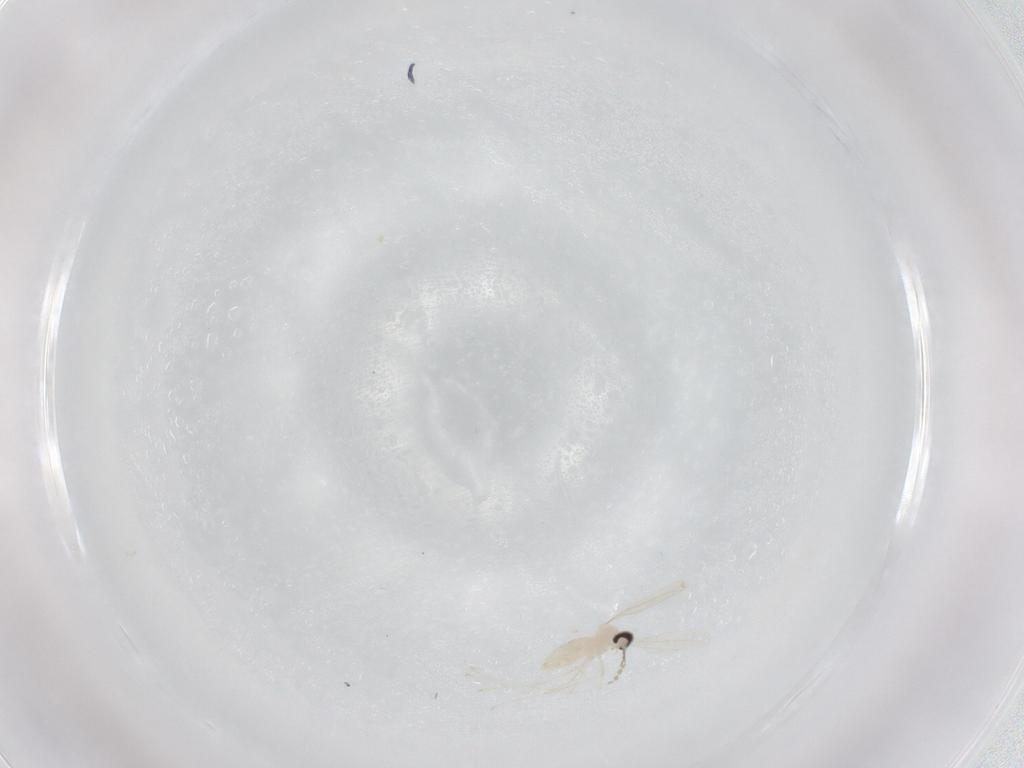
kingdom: Animalia
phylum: Arthropoda
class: Insecta
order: Diptera
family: Cecidomyiidae
